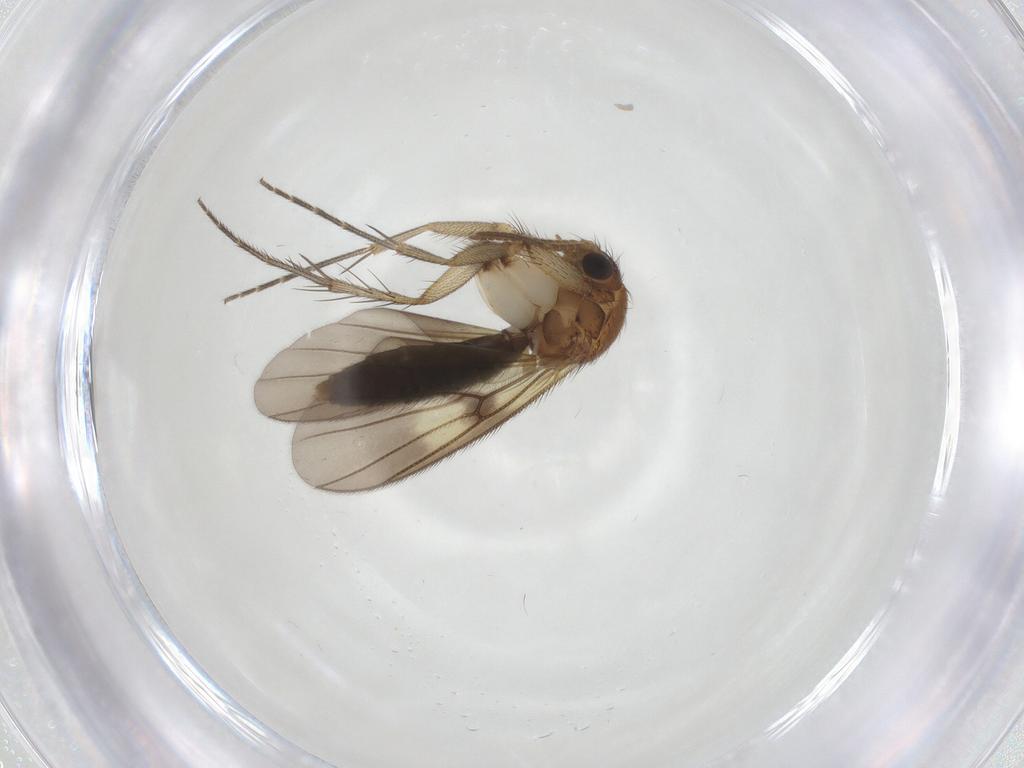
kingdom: Animalia
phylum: Arthropoda
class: Insecta
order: Diptera
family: Mycetophilidae
